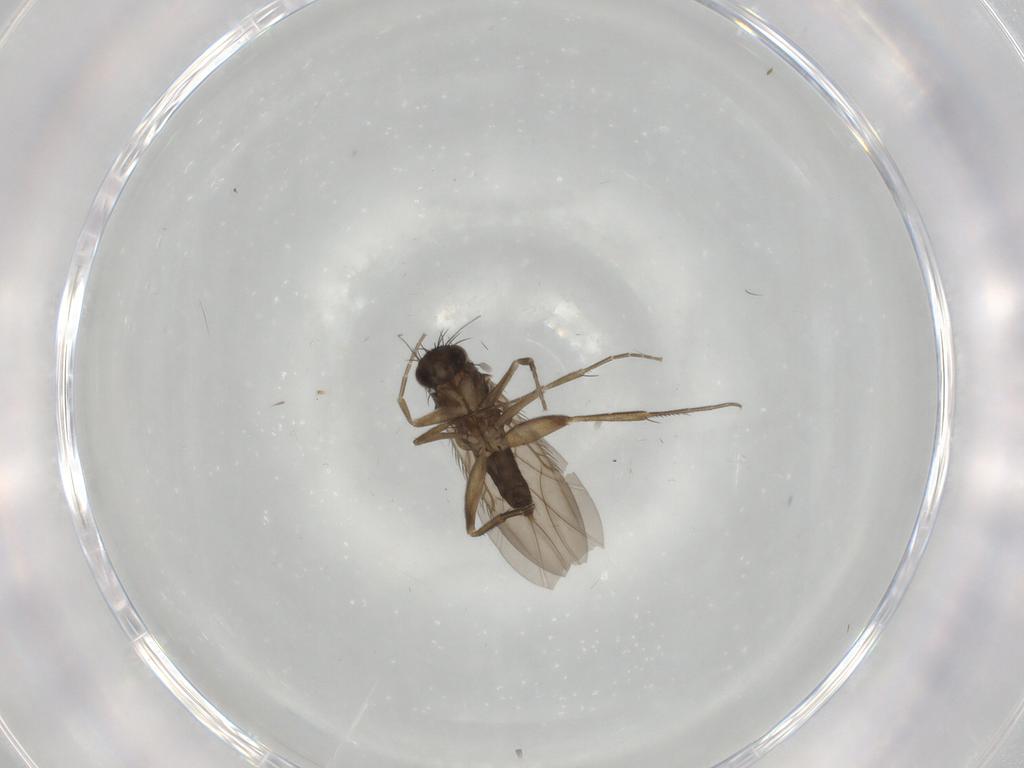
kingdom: Animalia
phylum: Arthropoda
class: Insecta
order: Diptera
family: Phoridae
